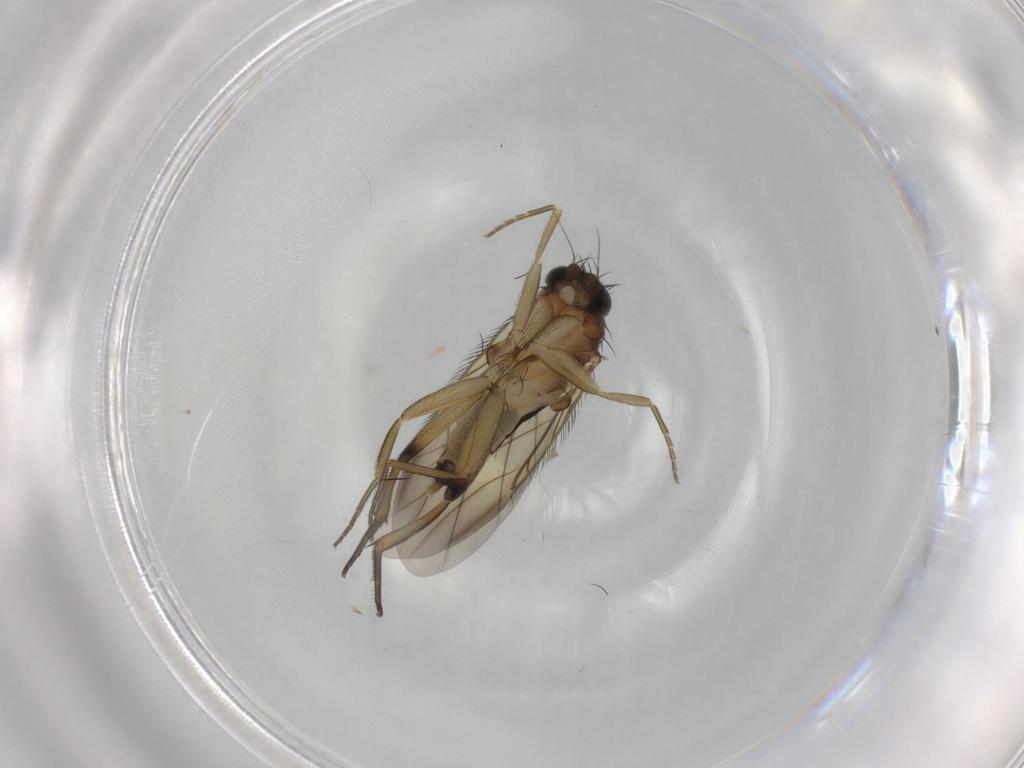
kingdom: Animalia
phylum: Arthropoda
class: Insecta
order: Diptera
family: Phoridae
